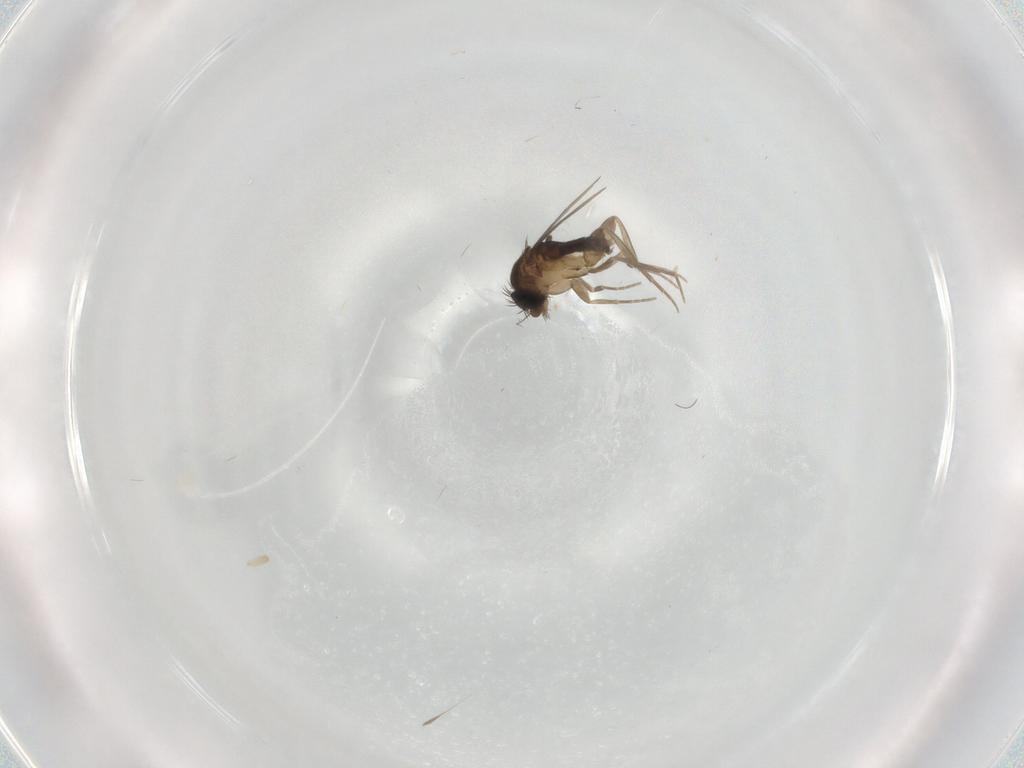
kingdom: Animalia
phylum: Arthropoda
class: Insecta
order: Diptera
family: Phoridae
